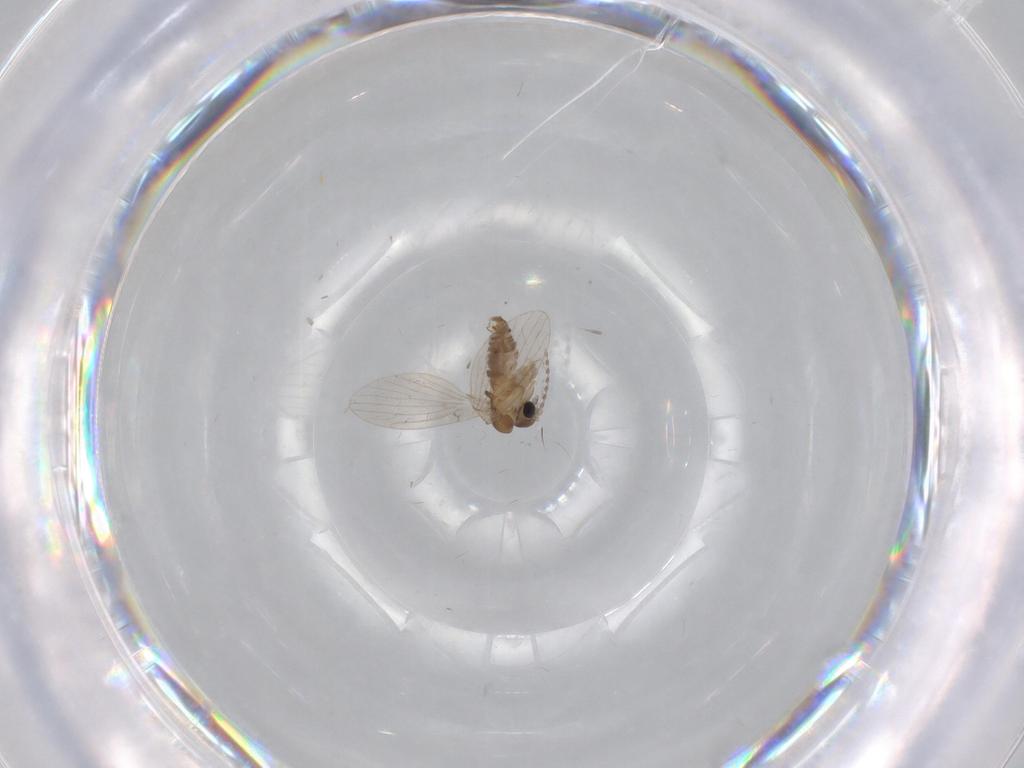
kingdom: Animalia
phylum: Arthropoda
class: Insecta
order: Diptera
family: Psychodidae
